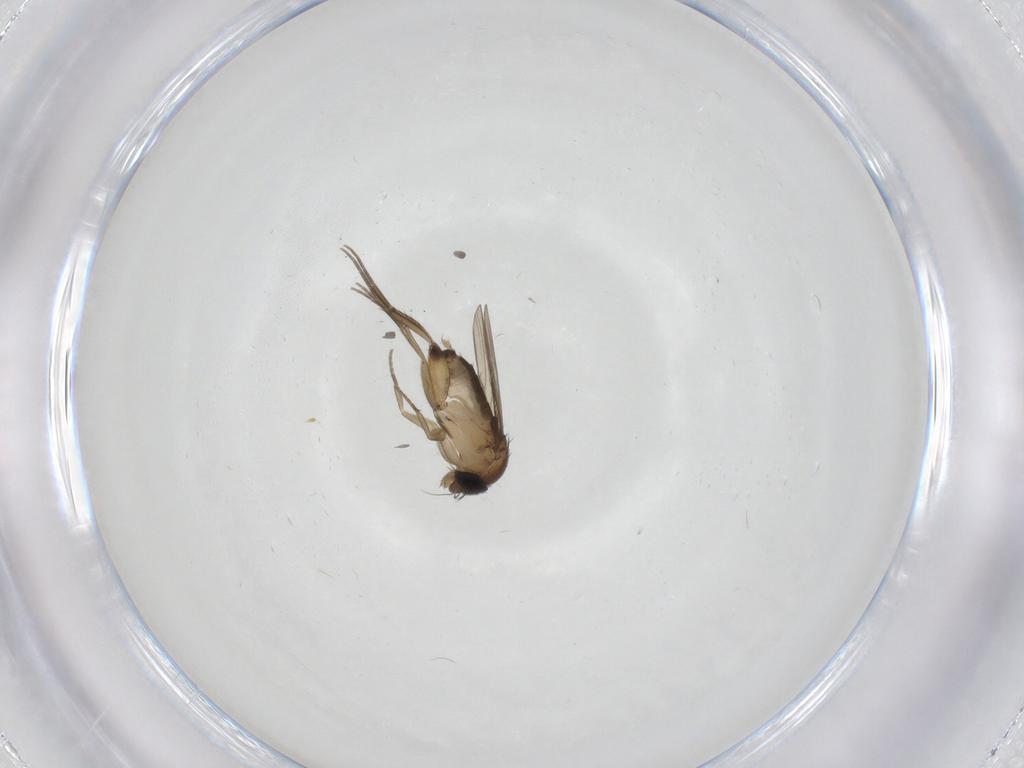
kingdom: Animalia
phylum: Arthropoda
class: Insecta
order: Diptera
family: Phoridae
